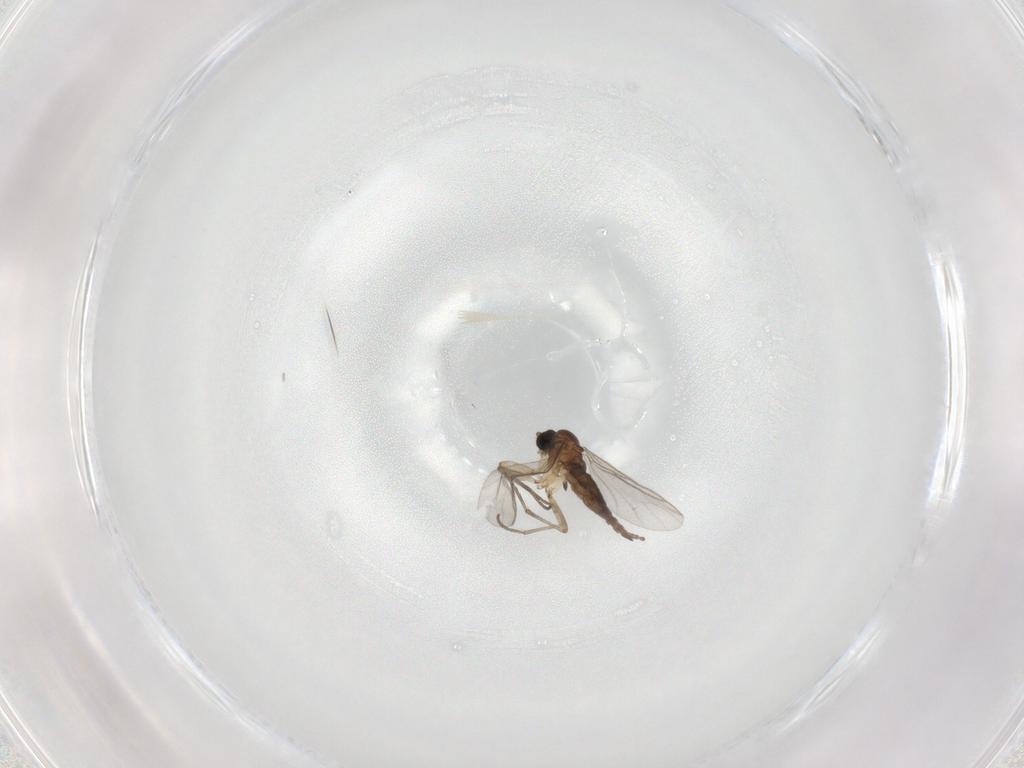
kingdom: Animalia
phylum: Arthropoda
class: Insecta
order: Diptera
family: Sciaridae
